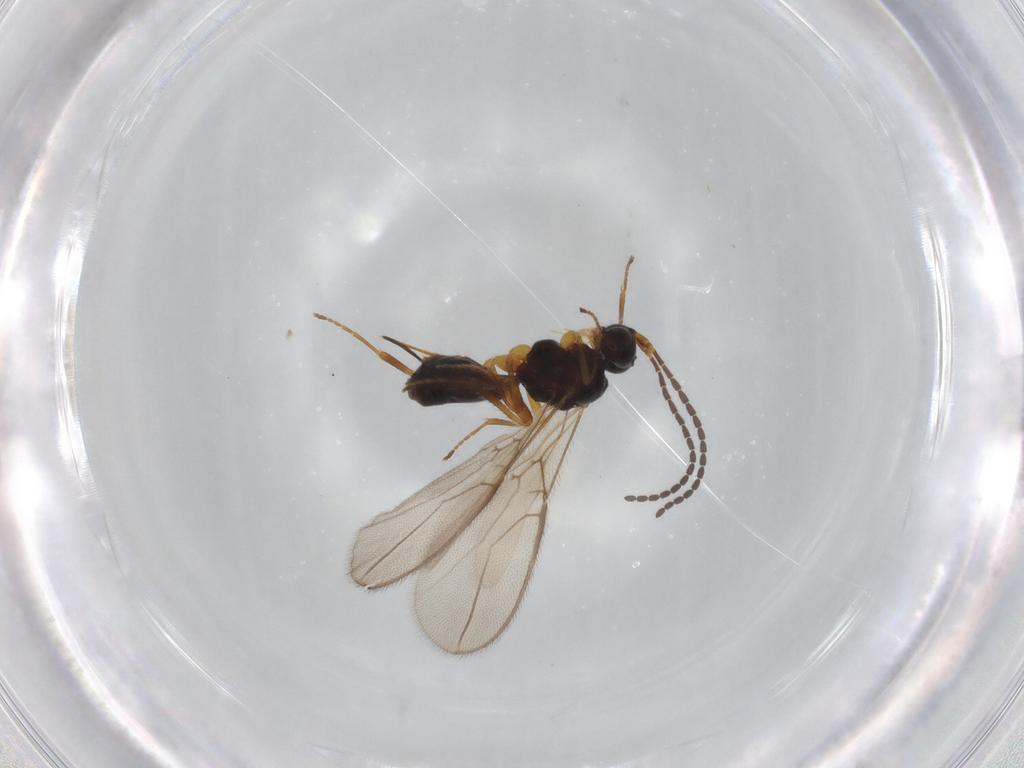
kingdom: Animalia
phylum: Arthropoda
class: Insecta
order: Hymenoptera
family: Braconidae
